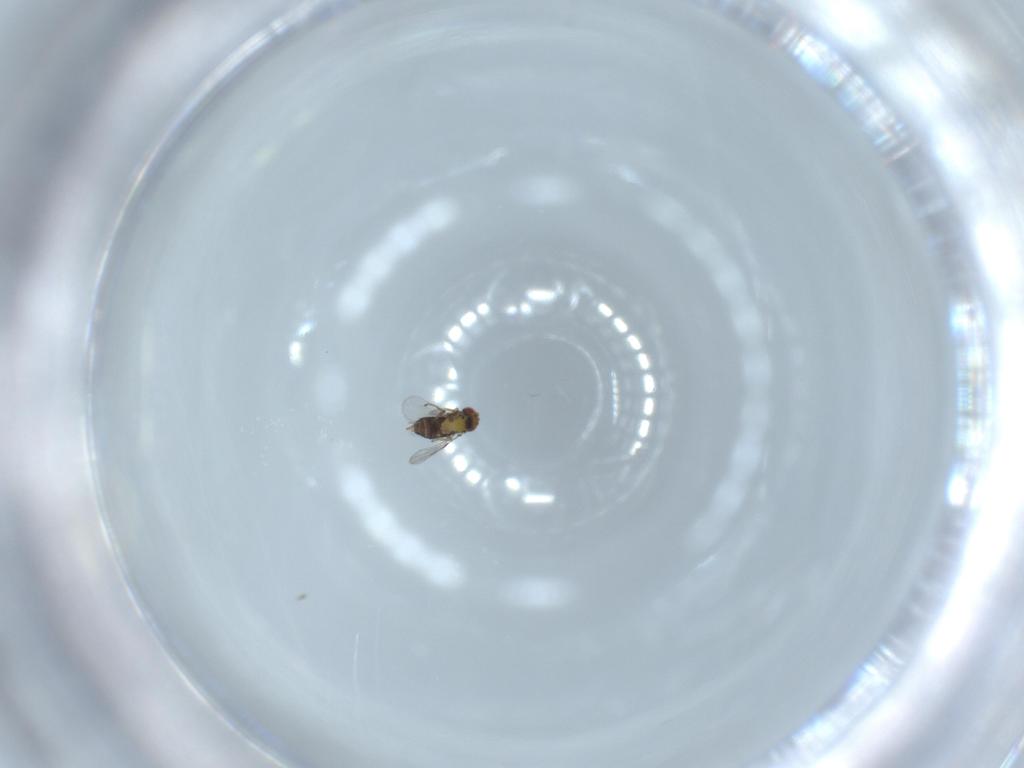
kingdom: Animalia
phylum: Arthropoda
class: Insecta
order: Hymenoptera
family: Trichogrammatidae
